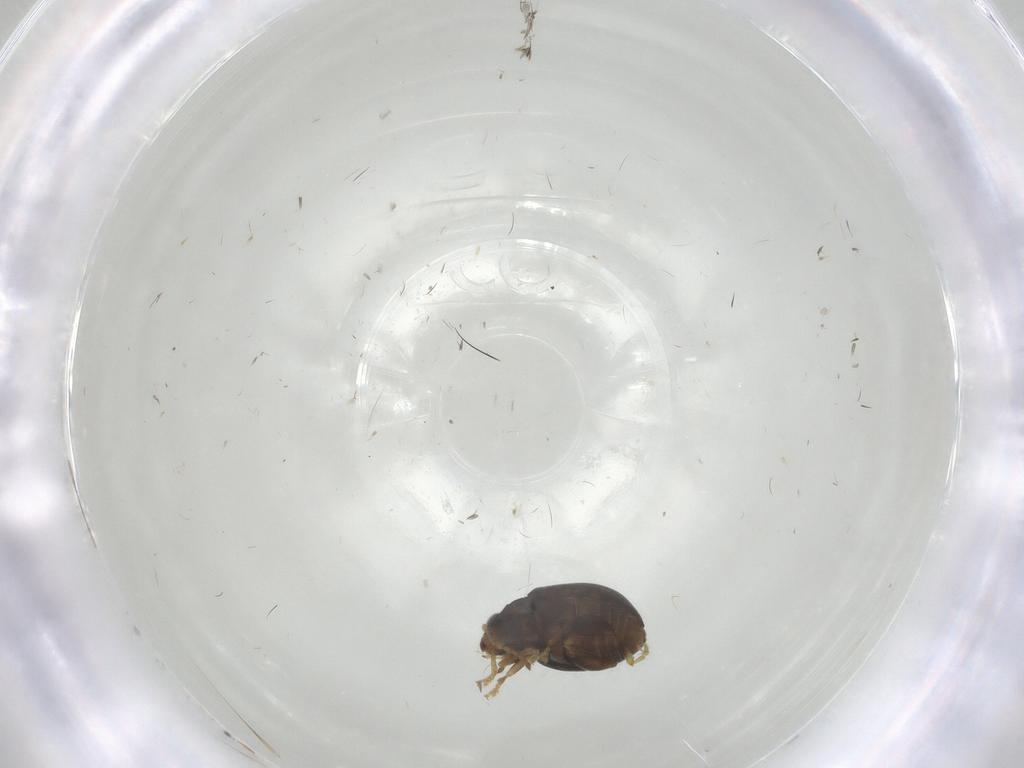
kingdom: Animalia
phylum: Arthropoda
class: Insecta
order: Coleoptera
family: Chrysomelidae
